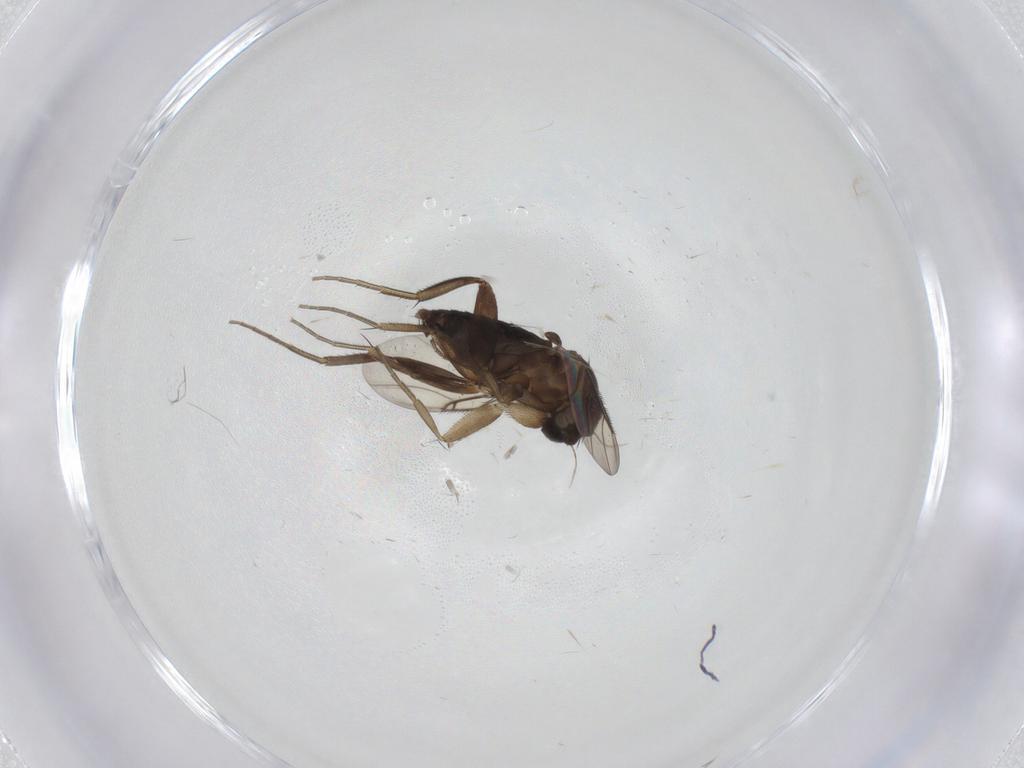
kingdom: Animalia
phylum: Arthropoda
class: Insecta
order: Diptera
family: Phoridae
